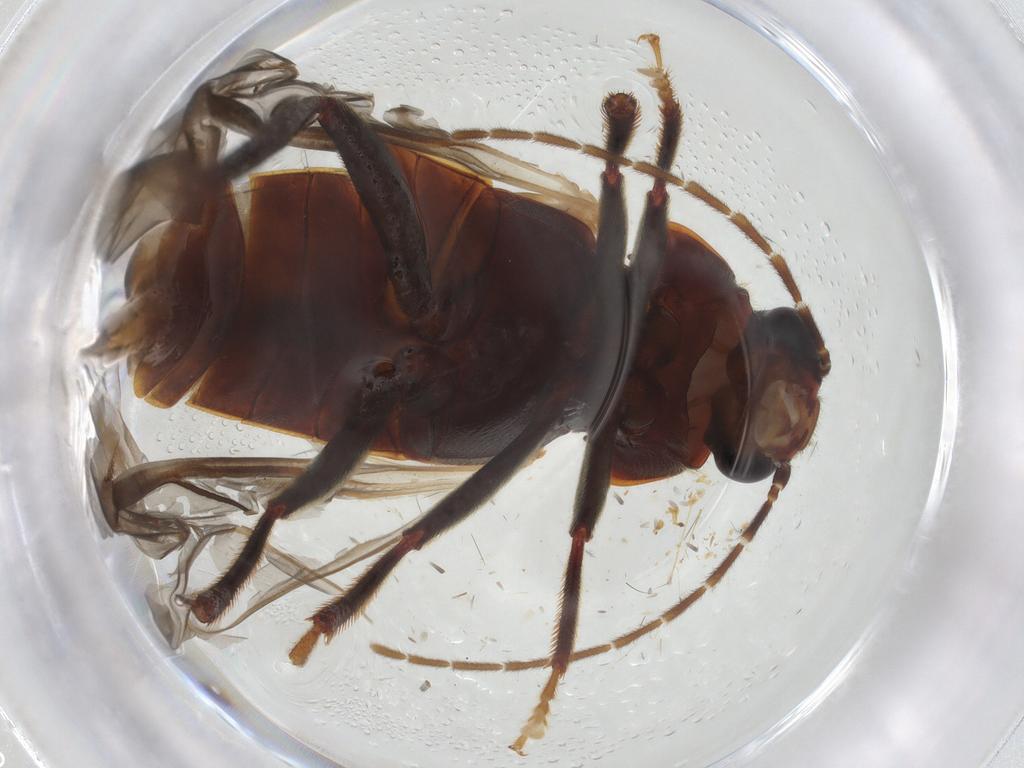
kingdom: Animalia
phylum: Arthropoda
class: Insecta
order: Coleoptera
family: Ptilodactylidae
